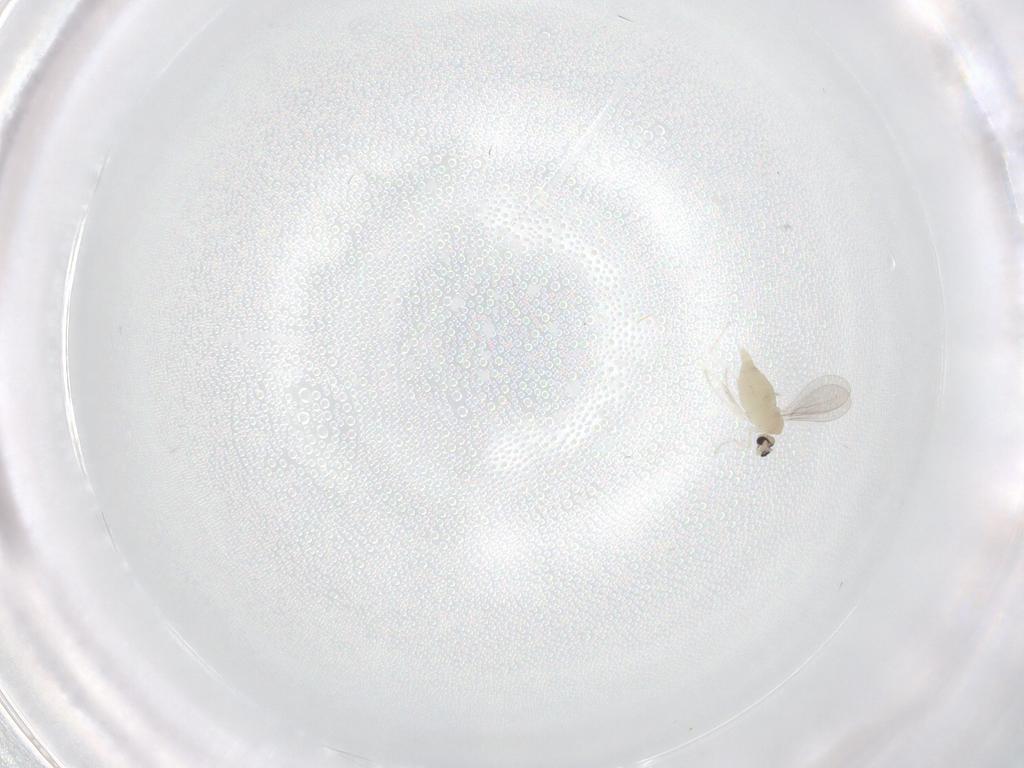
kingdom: Animalia
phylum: Arthropoda
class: Insecta
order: Diptera
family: Cecidomyiidae
